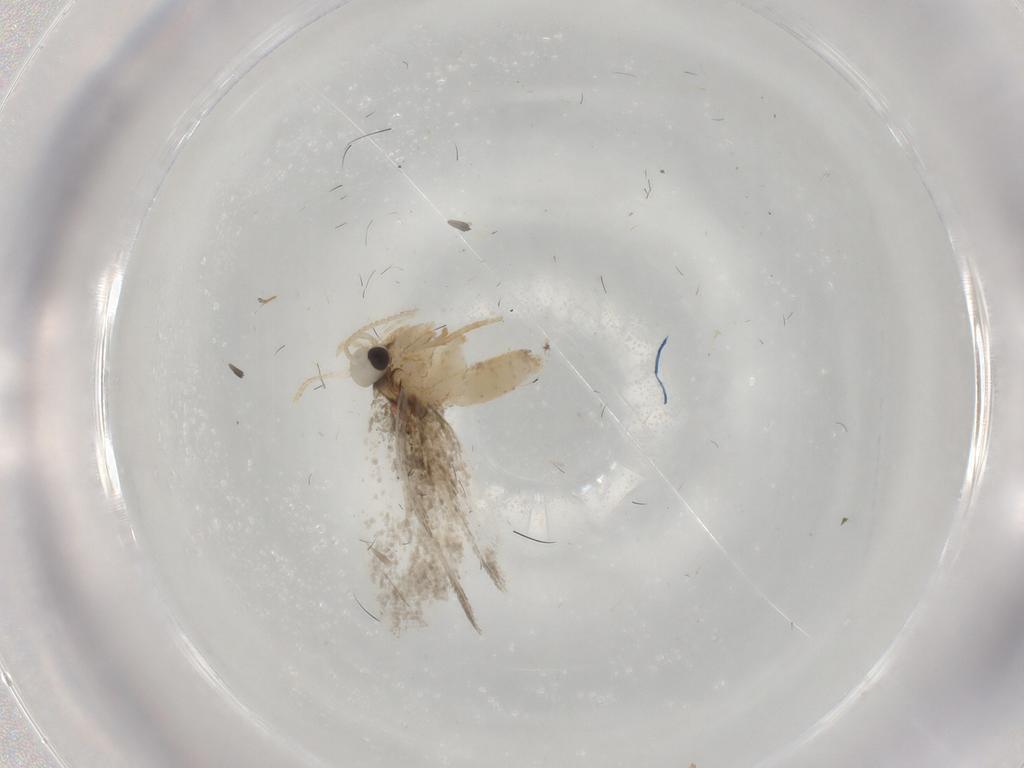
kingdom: Animalia
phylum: Arthropoda
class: Insecta
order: Lepidoptera
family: Psychidae
